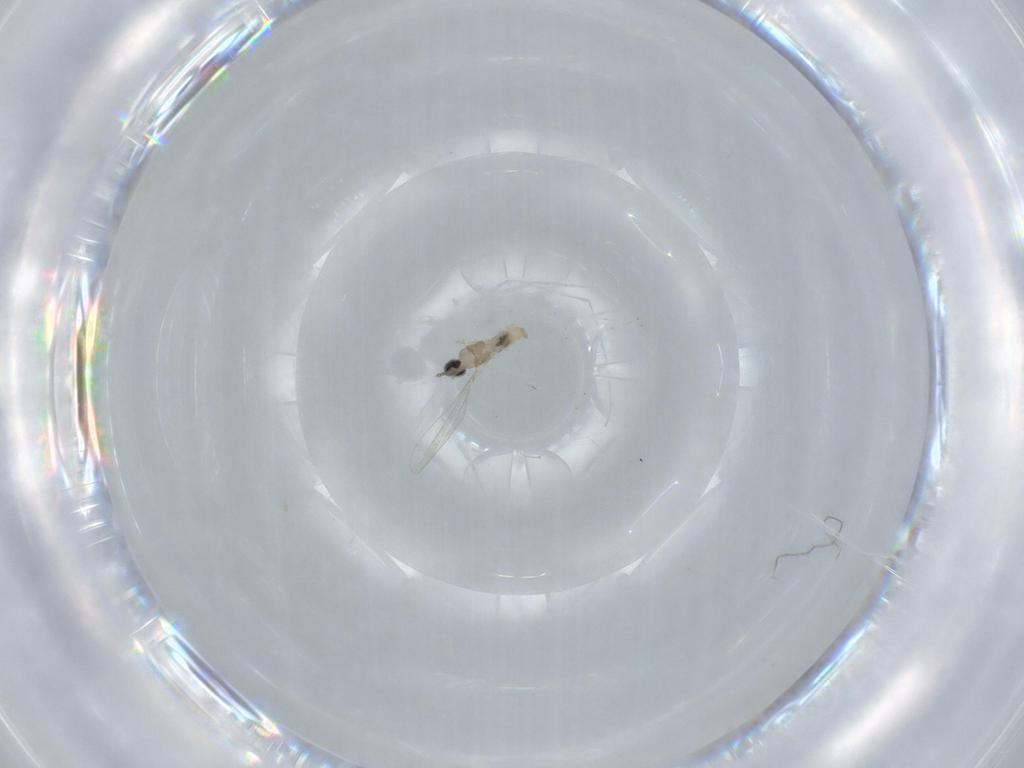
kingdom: Animalia
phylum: Arthropoda
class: Insecta
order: Diptera
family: Cecidomyiidae
